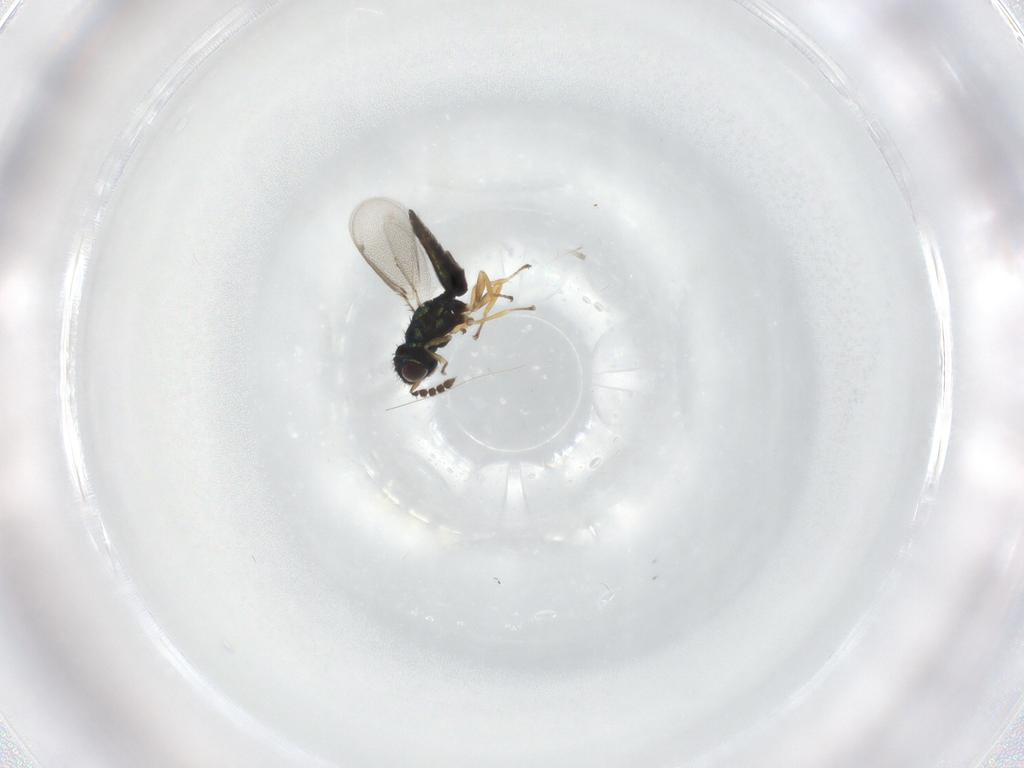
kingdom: Animalia
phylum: Arthropoda
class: Insecta
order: Hymenoptera
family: Eulophidae
